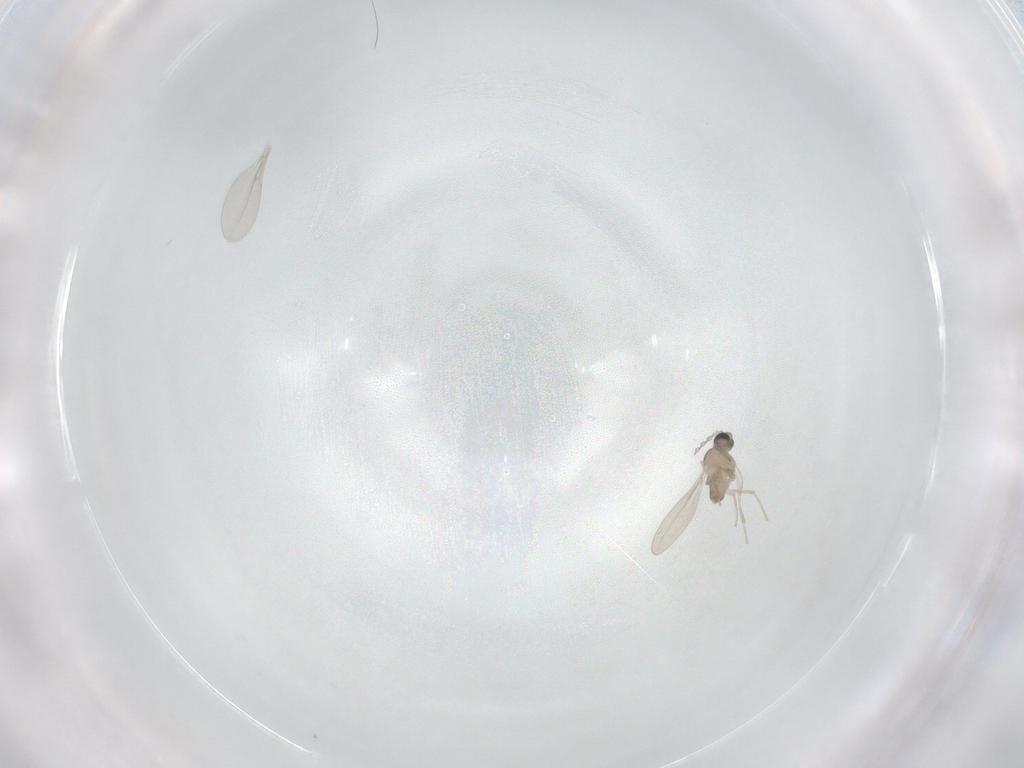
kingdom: Animalia
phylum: Arthropoda
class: Insecta
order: Diptera
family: Cecidomyiidae
